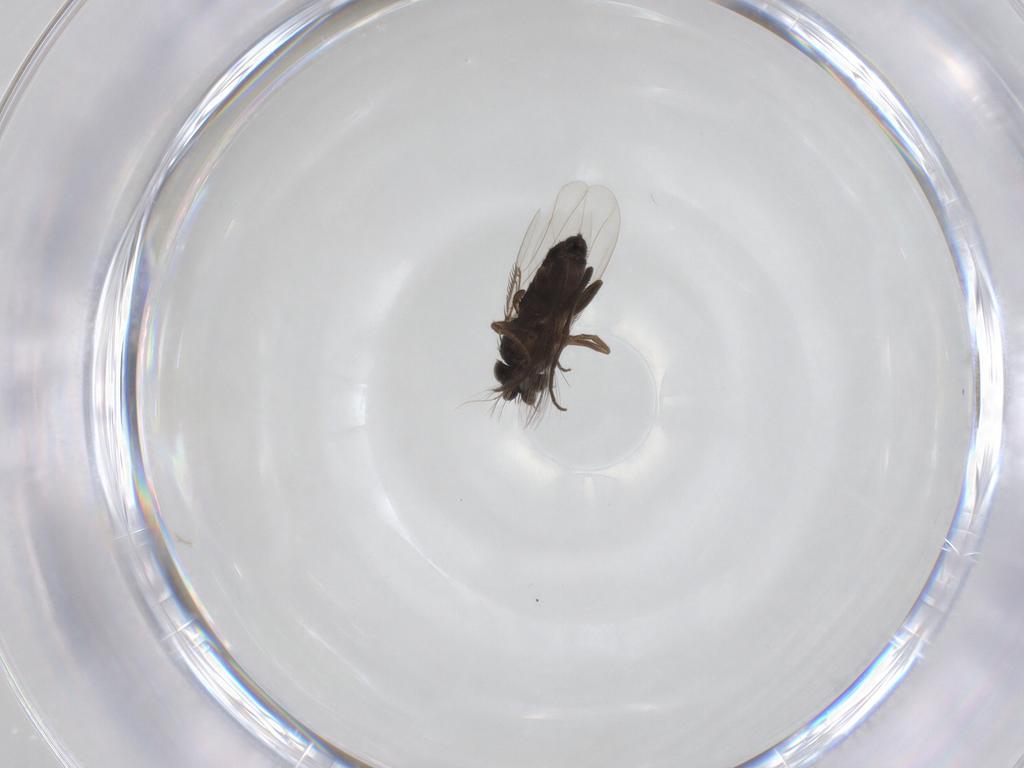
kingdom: Animalia
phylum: Arthropoda
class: Insecta
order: Diptera
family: Chironomidae
